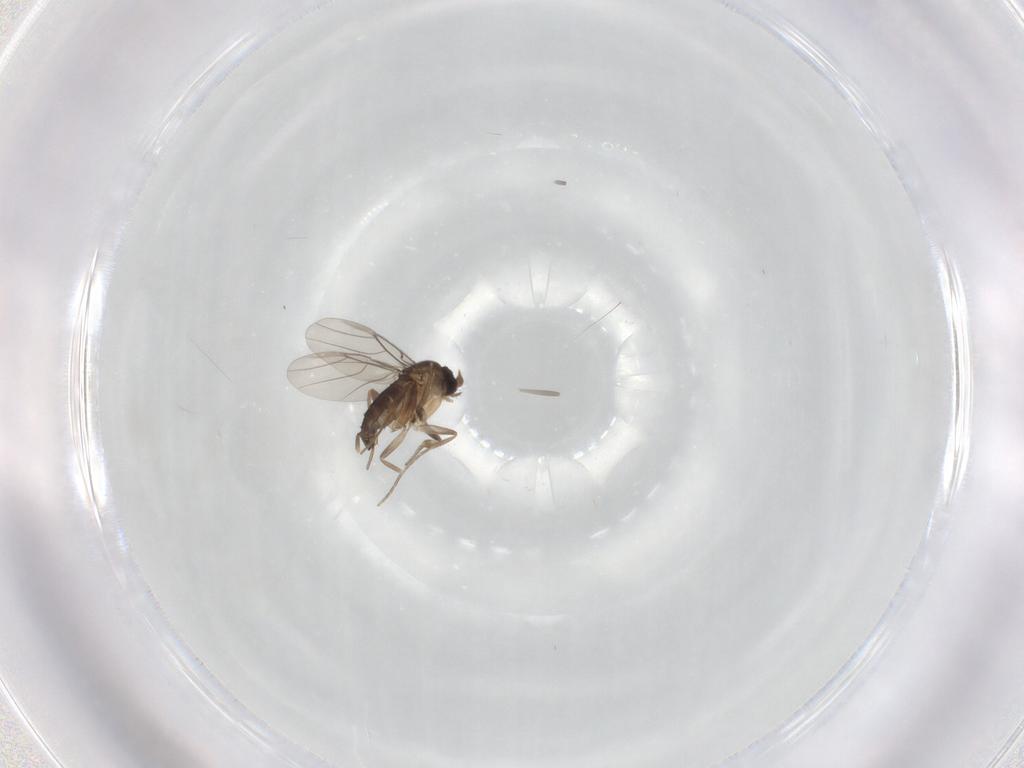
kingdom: Animalia
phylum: Arthropoda
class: Insecta
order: Diptera
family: Phoridae
